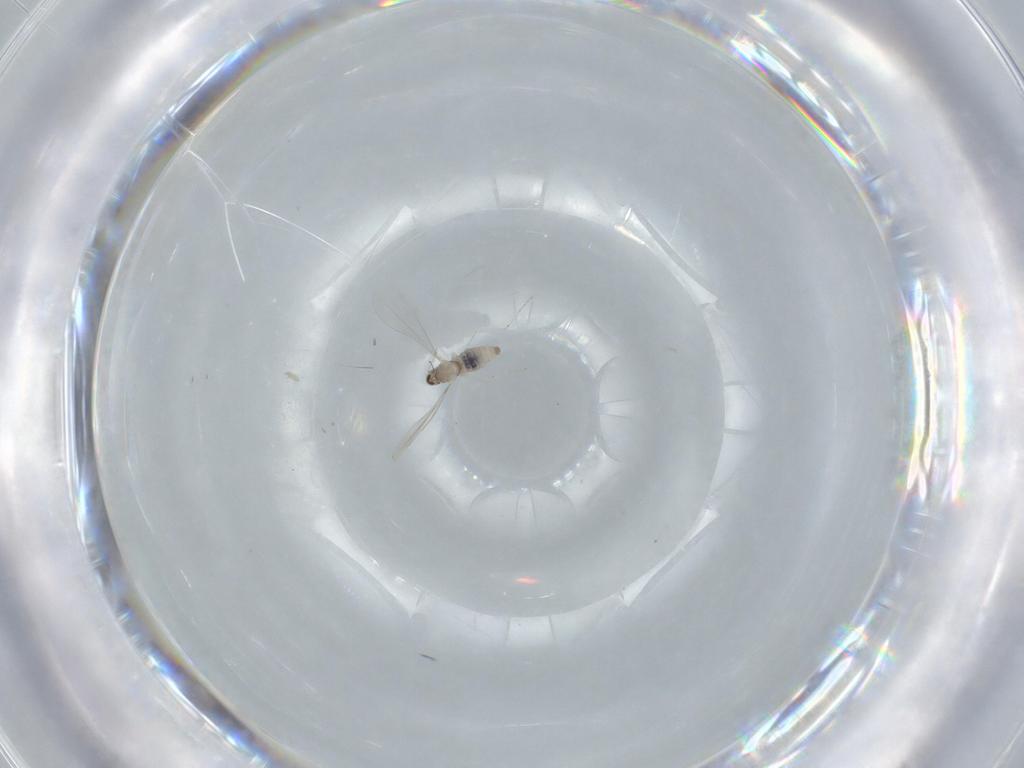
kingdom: Animalia
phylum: Arthropoda
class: Insecta
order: Diptera
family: Cecidomyiidae
